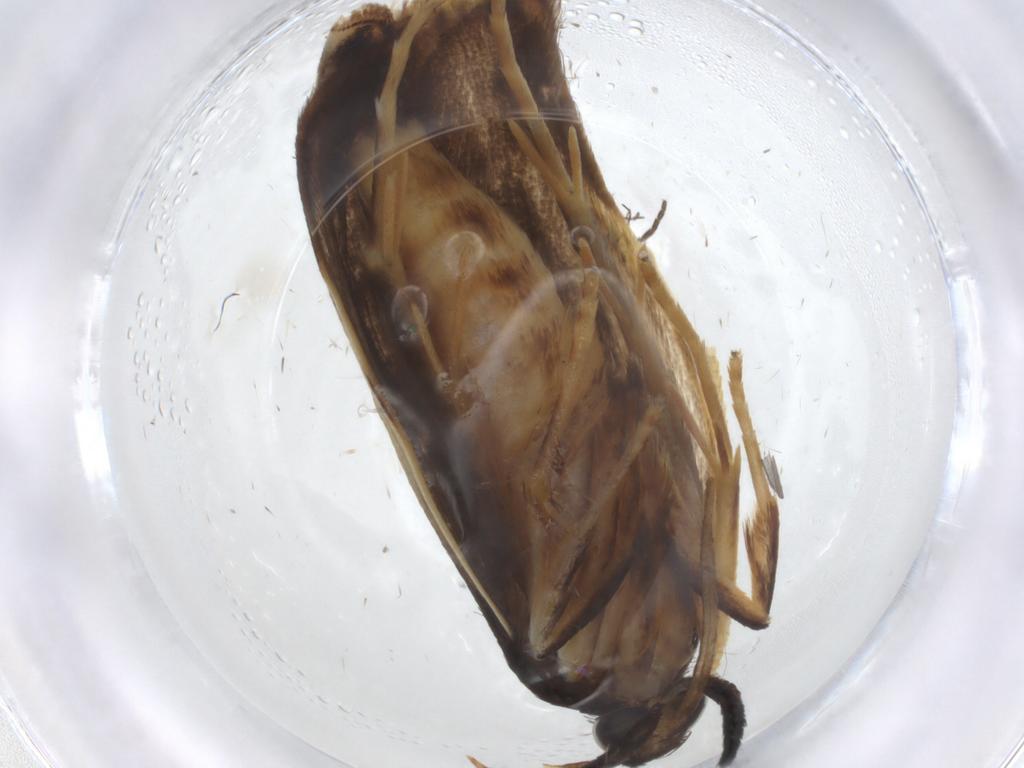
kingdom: Animalia
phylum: Arthropoda
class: Insecta
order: Lepidoptera
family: Depressariidae
